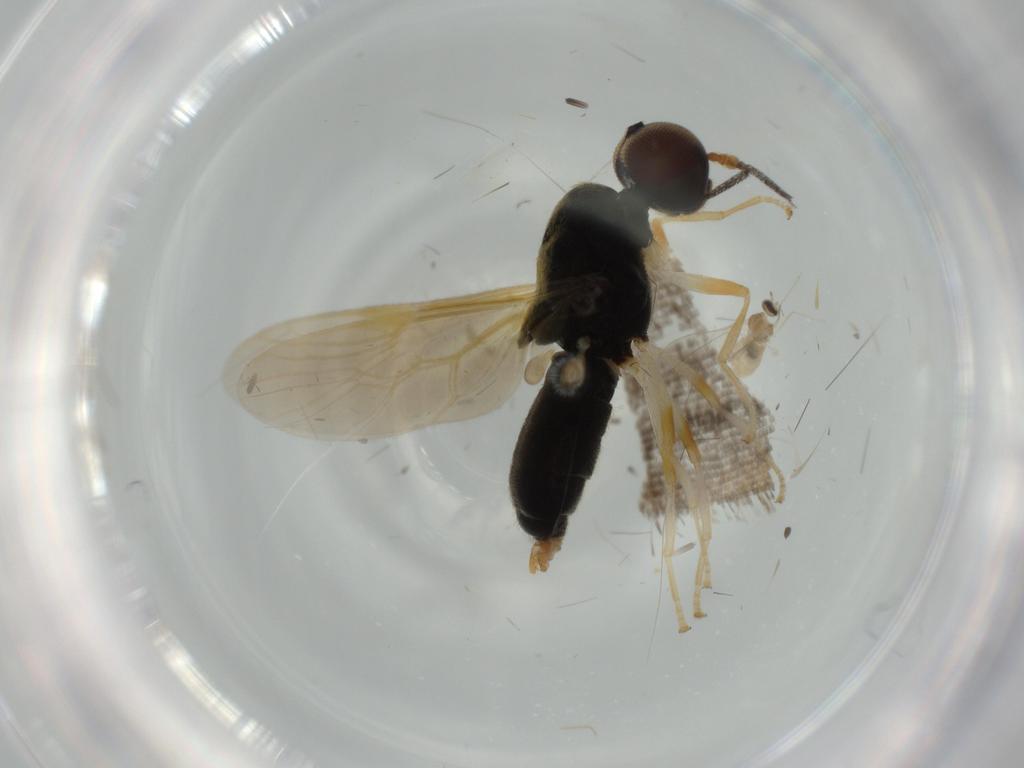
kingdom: Animalia
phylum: Arthropoda
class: Insecta
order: Diptera
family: Stratiomyidae
